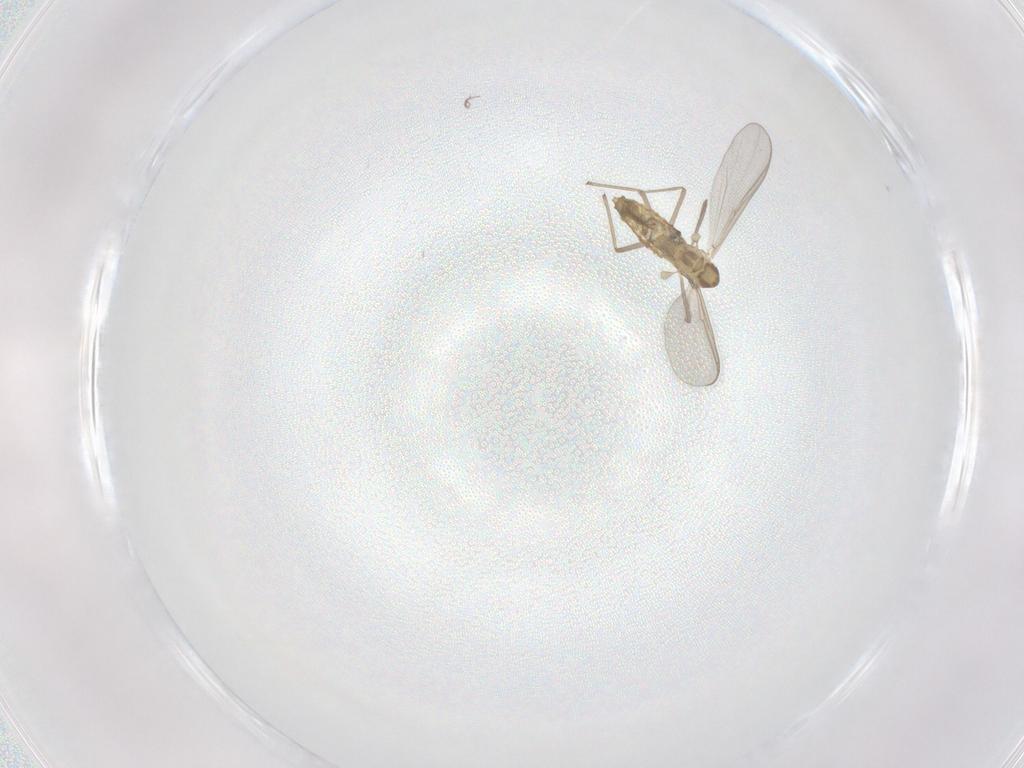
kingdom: Animalia
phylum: Arthropoda
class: Insecta
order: Diptera
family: Chironomidae
